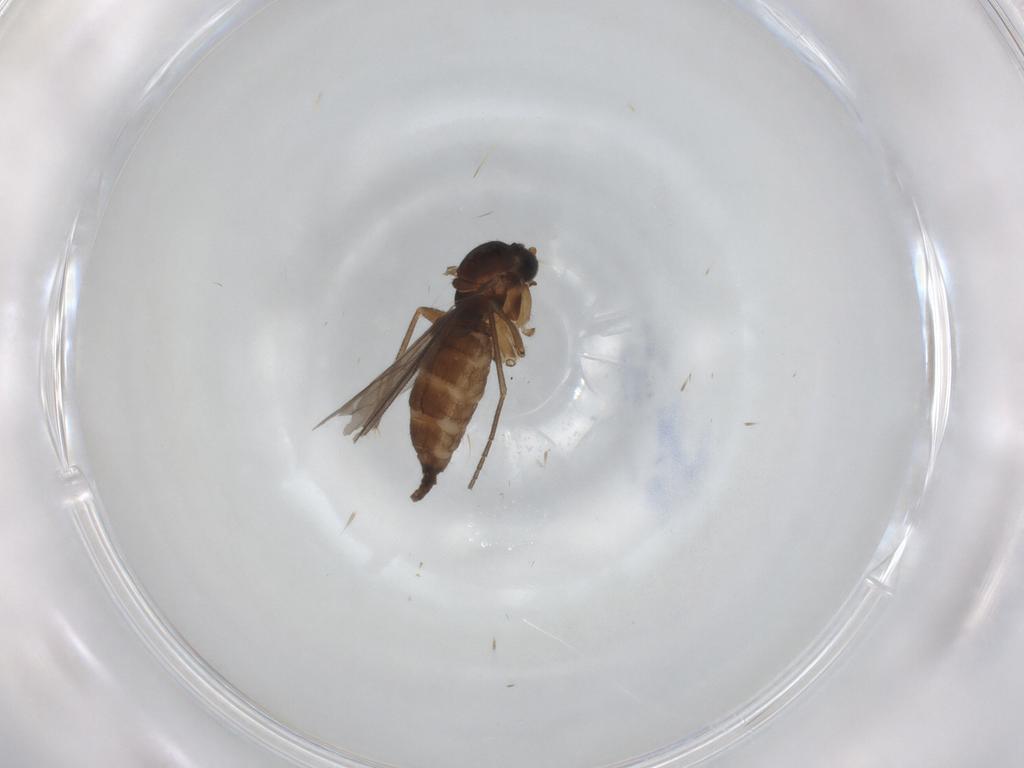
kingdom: Animalia
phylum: Arthropoda
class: Insecta
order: Diptera
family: Sciaridae
